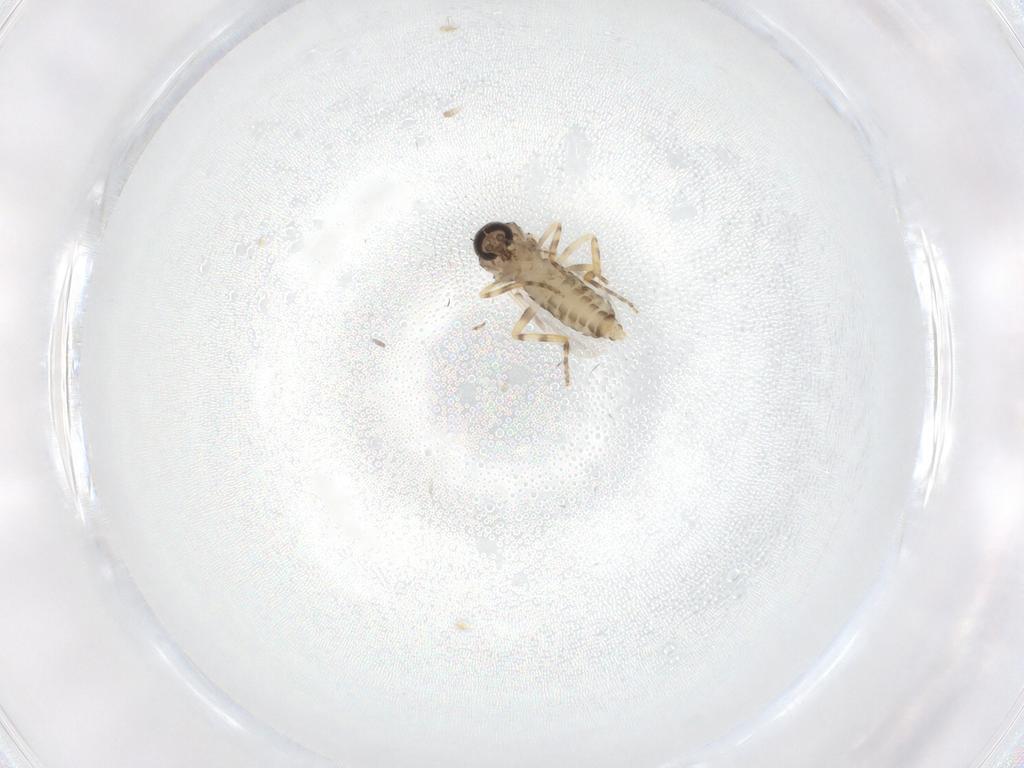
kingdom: Animalia
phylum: Arthropoda
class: Insecta
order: Diptera
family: Ceratopogonidae
